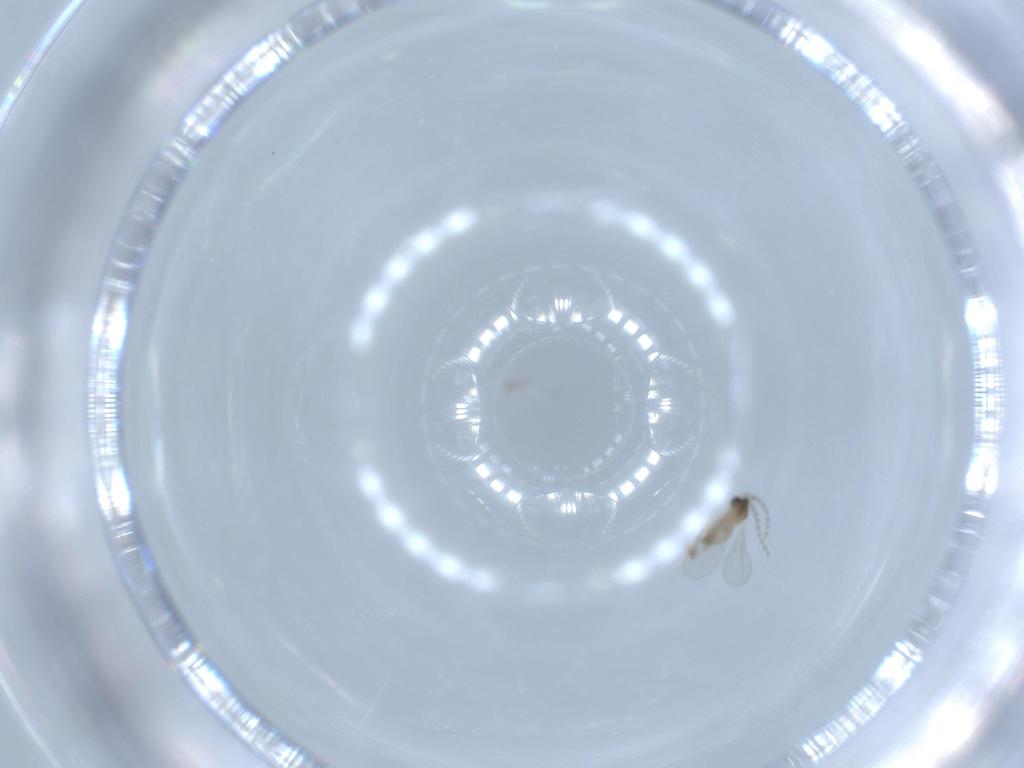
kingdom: Animalia
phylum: Arthropoda
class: Insecta
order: Diptera
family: Cecidomyiidae
